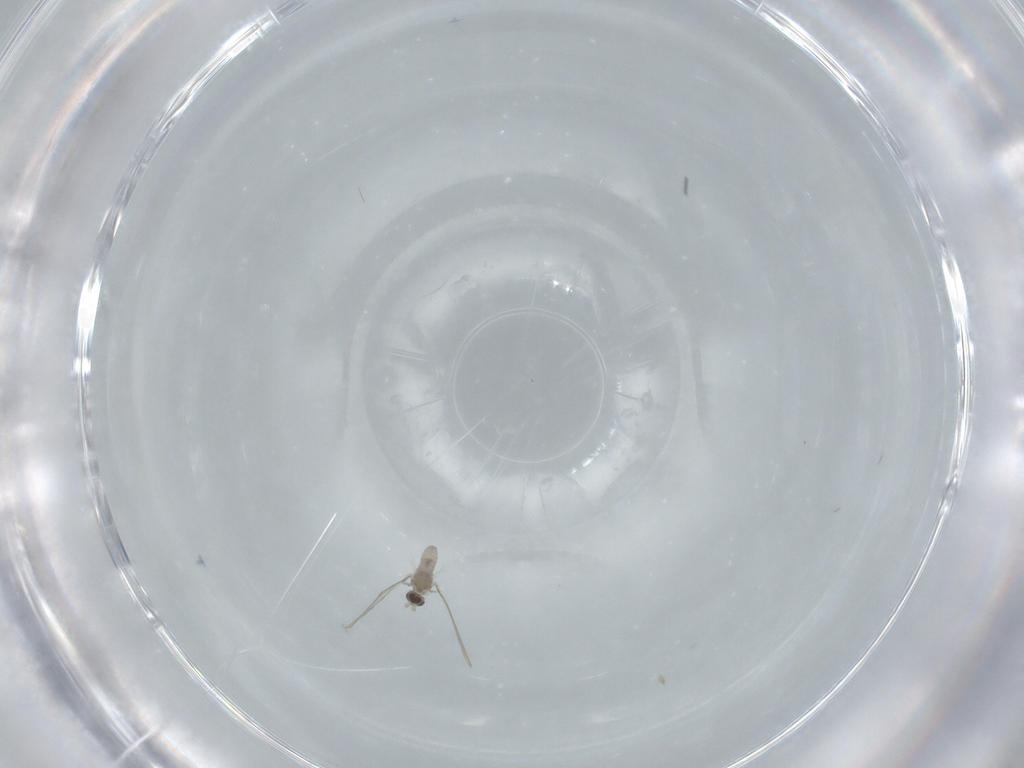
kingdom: Animalia
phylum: Arthropoda
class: Insecta
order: Diptera
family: Cecidomyiidae
